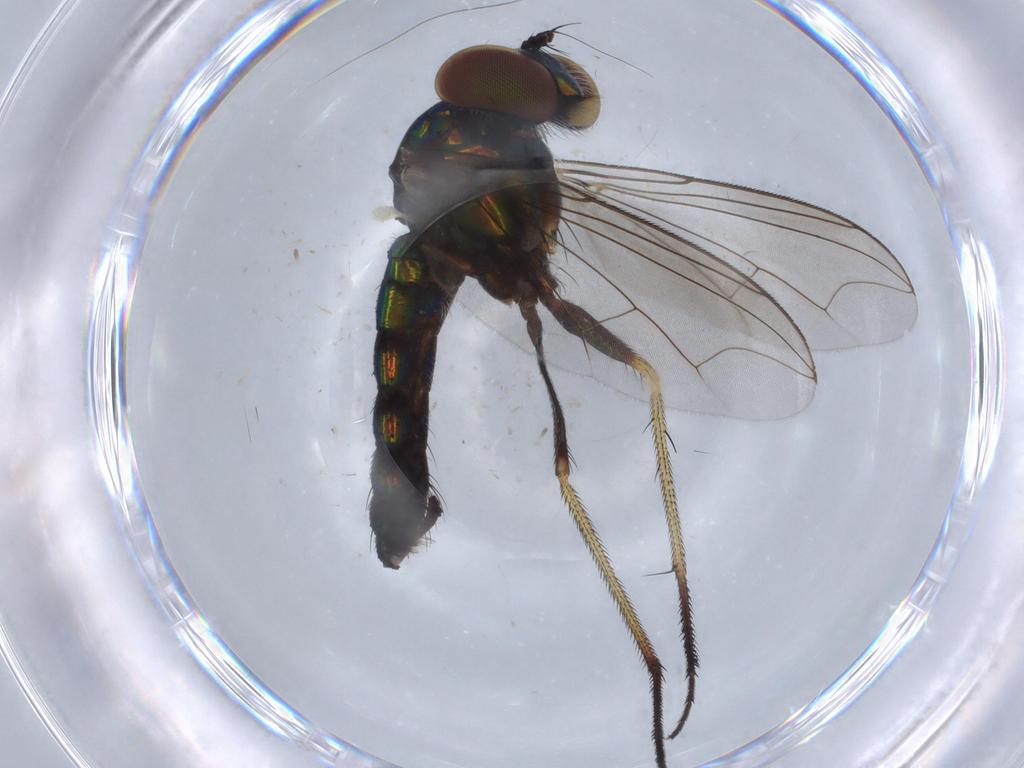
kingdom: Animalia
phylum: Arthropoda
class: Insecta
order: Diptera
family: Dolichopodidae
